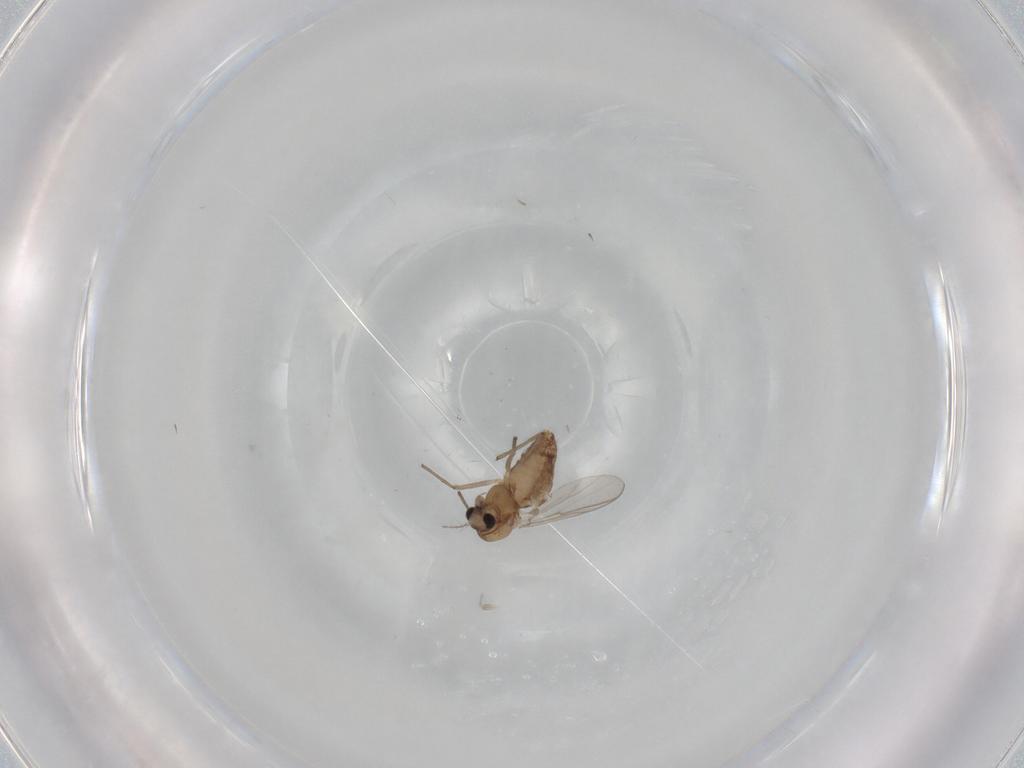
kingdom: Animalia
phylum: Arthropoda
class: Insecta
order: Diptera
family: Chironomidae
